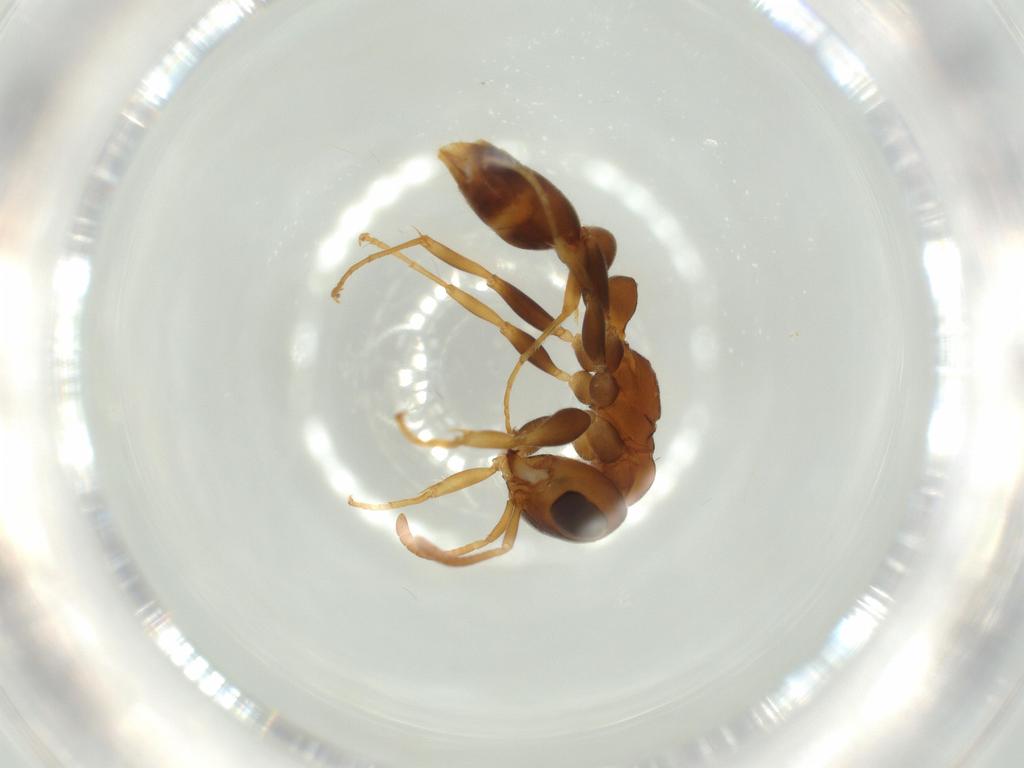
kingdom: Animalia
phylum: Arthropoda
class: Insecta
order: Hymenoptera
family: Formicidae
